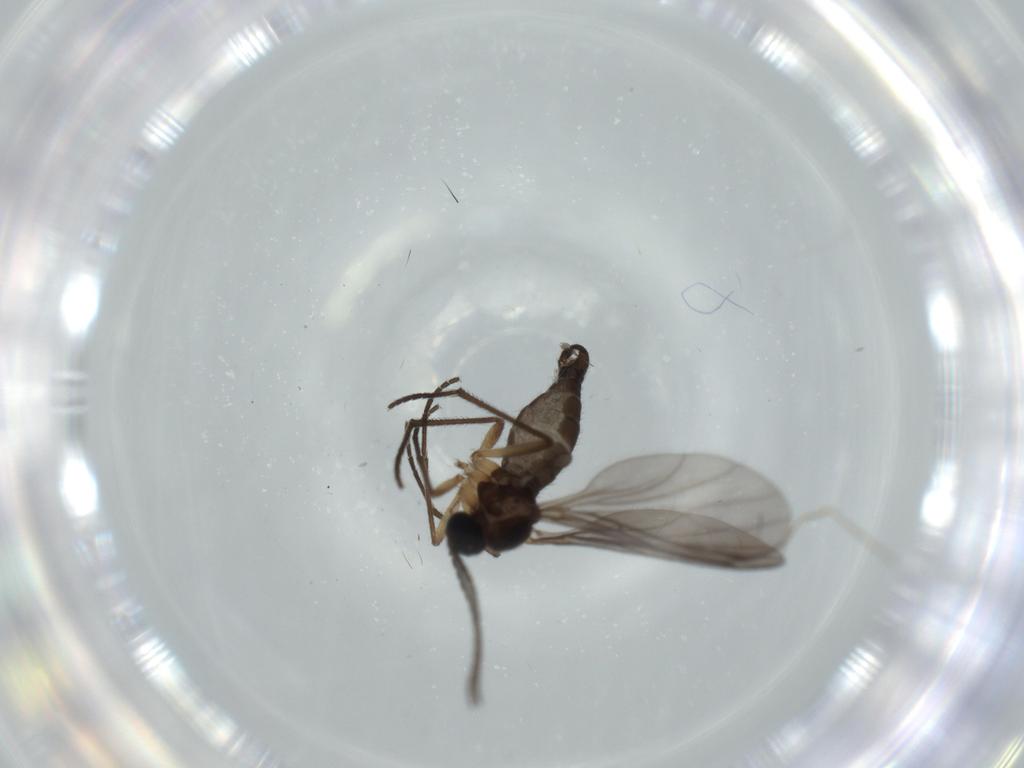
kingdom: Animalia
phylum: Arthropoda
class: Insecta
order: Diptera
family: Sciaridae
